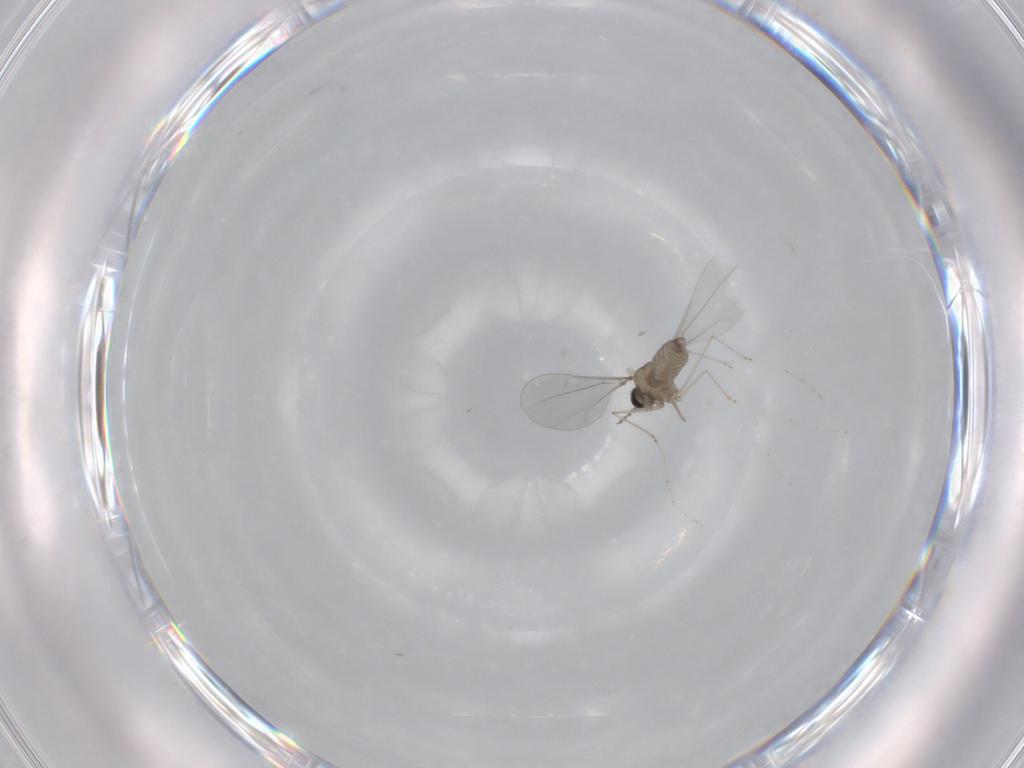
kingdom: Animalia
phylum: Arthropoda
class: Insecta
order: Diptera
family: Cecidomyiidae
